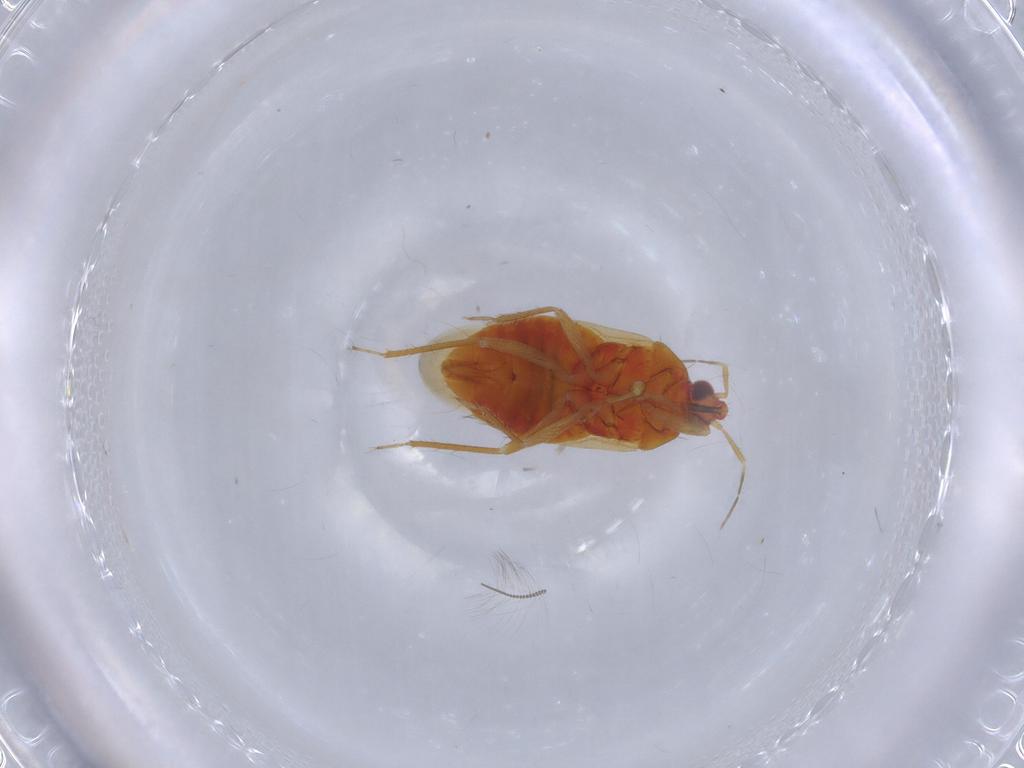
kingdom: Animalia
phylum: Arthropoda
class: Insecta
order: Hemiptera
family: Anthocoridae
